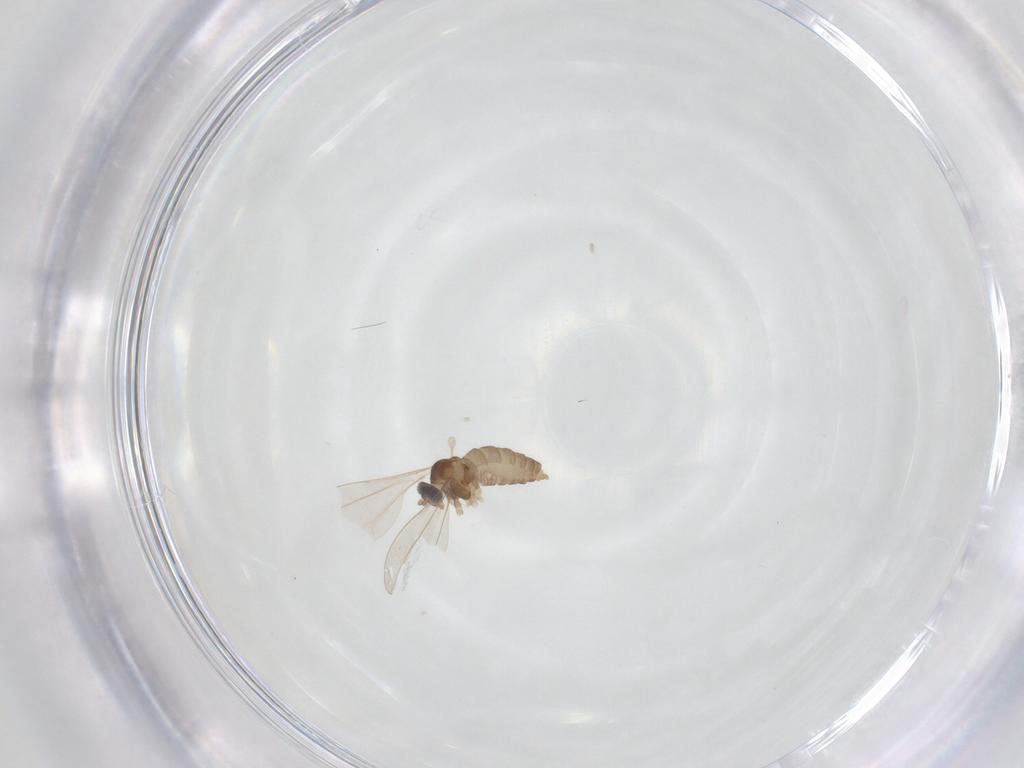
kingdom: Animalia
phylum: Arthropoda
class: Insecta
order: Diptera
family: Cecidomyiidae
